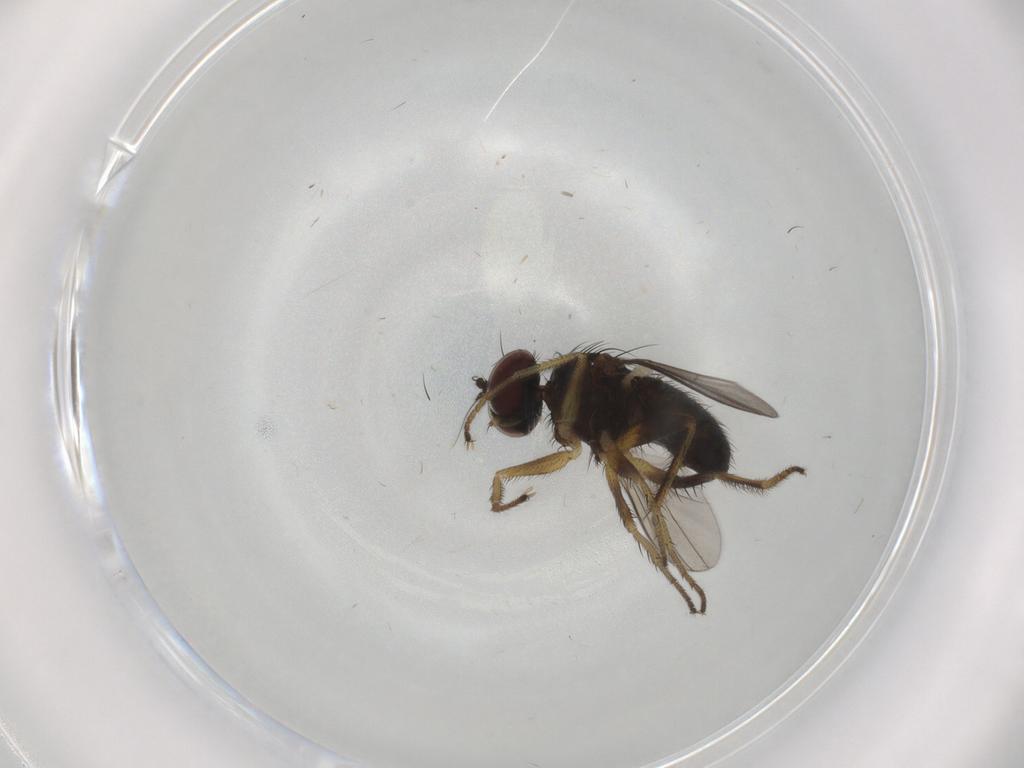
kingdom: Animalia
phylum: Arthropoda
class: Insecta
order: Diptera
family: Dolichopodidae
